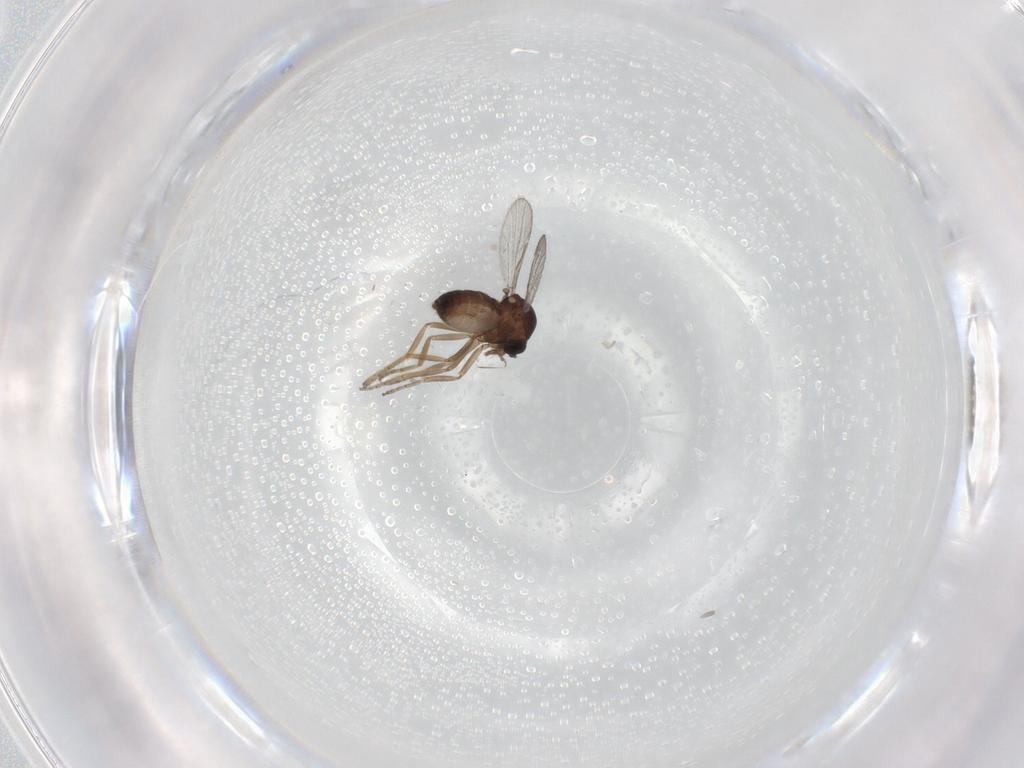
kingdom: Animalia
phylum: Arthropoda
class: Insecta
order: Diptera
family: Ceratopogonidae
